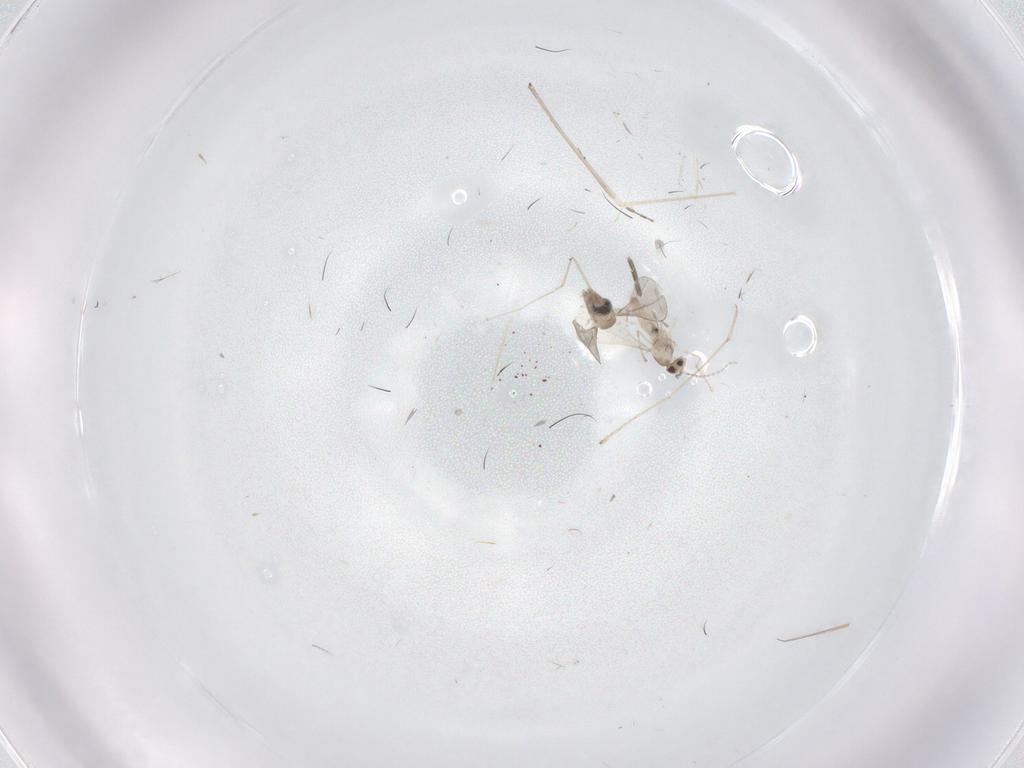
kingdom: Animalia
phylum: Arthropoda
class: Insecta
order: Diptera
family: Cecidomyiidae
